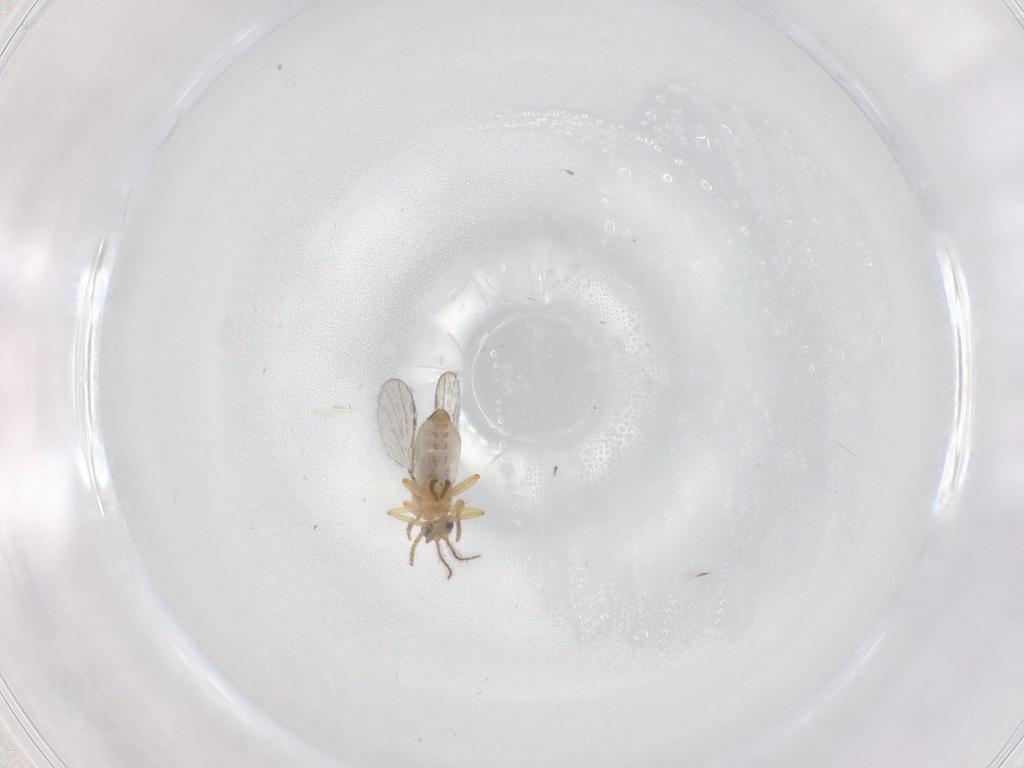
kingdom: Animalia
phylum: Arthropoda
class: Insecta
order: Diptera
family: Ceratopogonidae
